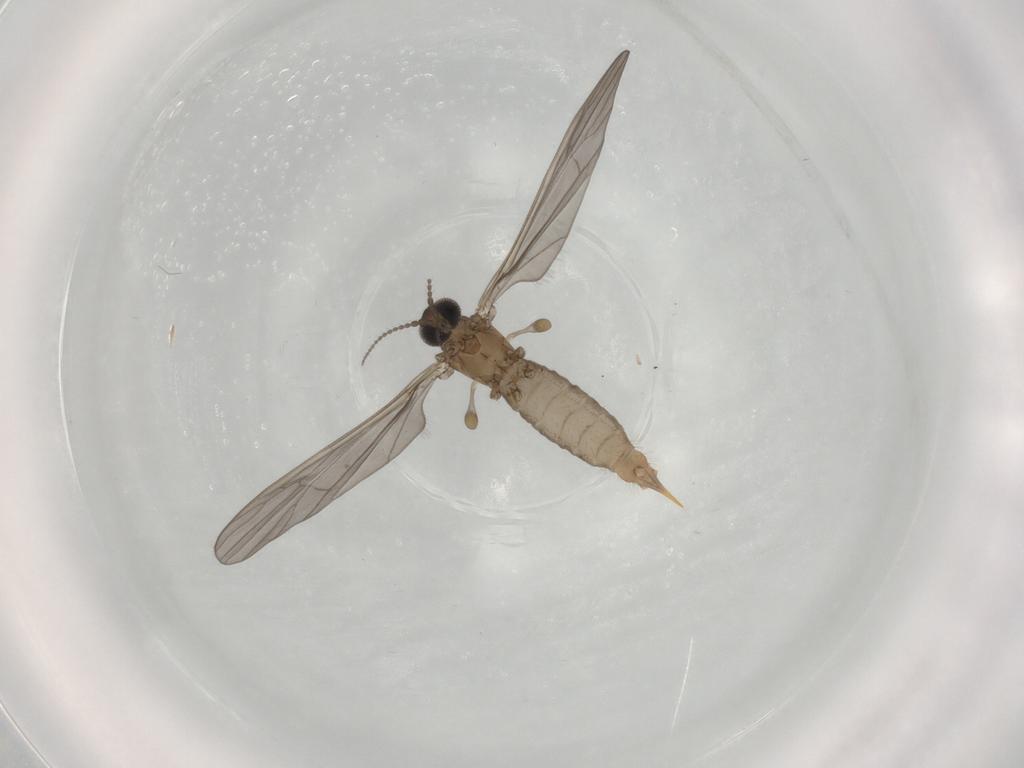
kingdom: Animalia
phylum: Arthropoda
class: Insecta
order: Diptera
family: Limoniidae
